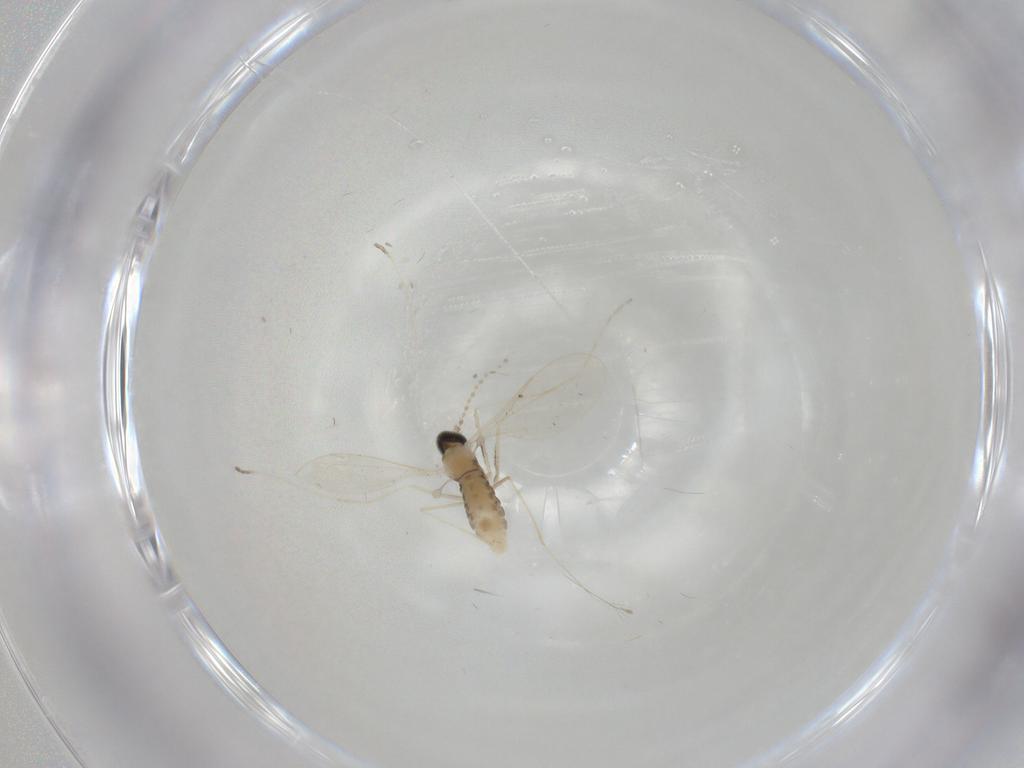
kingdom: Animalia
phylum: Arthropoda
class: Insecta
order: Diptera
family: Cecidomyiidae
